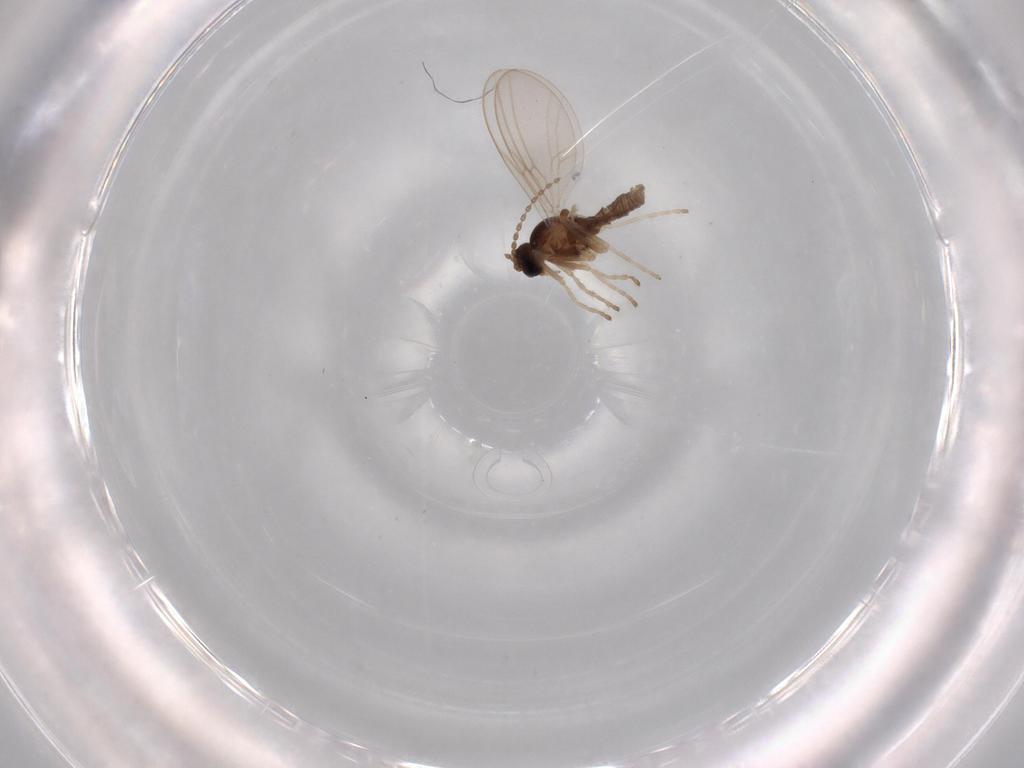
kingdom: Animalia
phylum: Arthropoda
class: Insecta
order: Diptera
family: Cecidomyiidae
